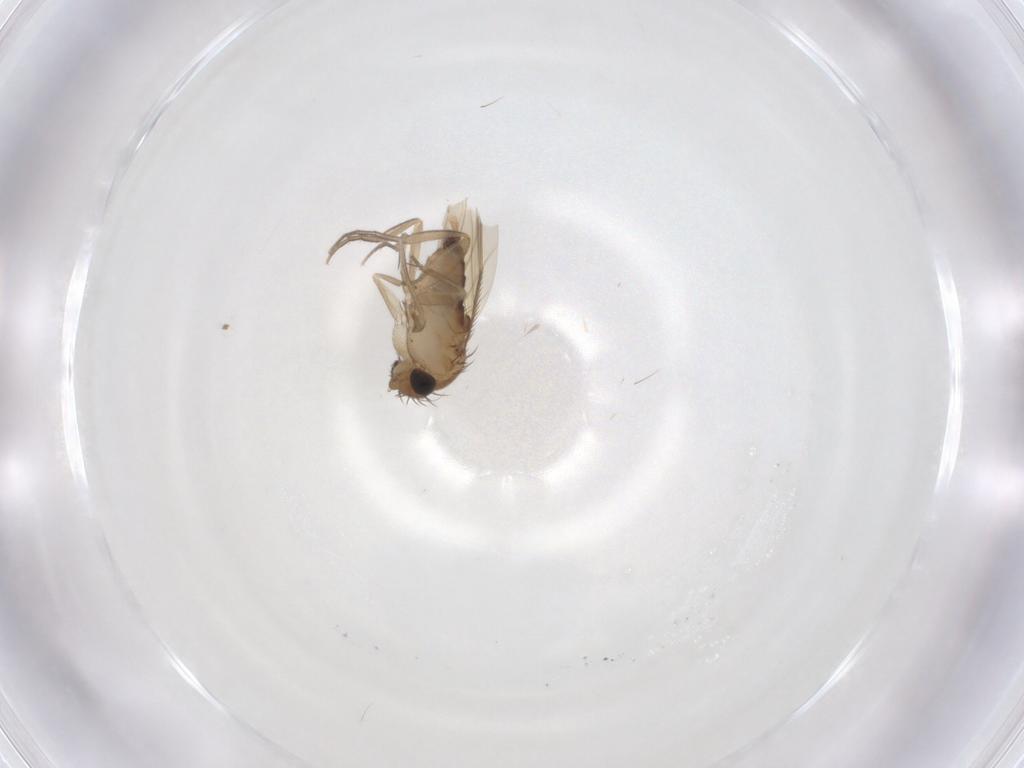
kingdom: Animalia
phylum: Arthropoda
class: Insecta
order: Diptera
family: Phoridae
